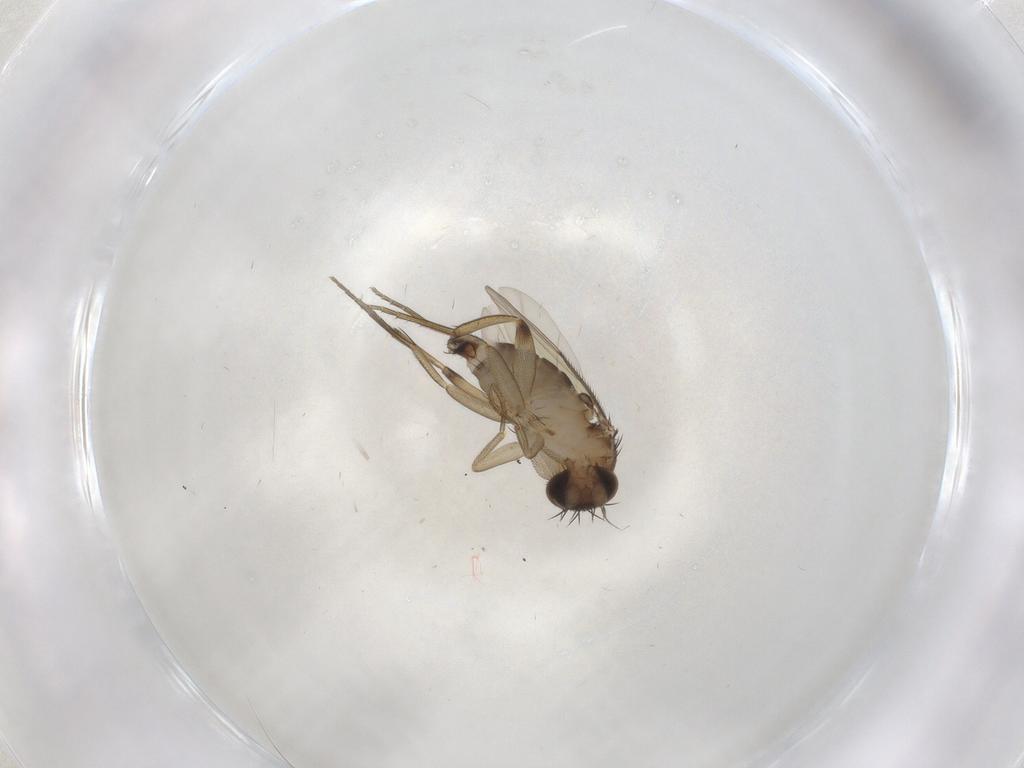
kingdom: Animalia
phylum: Arthropoda
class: Insecta
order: Diptera
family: Phoridae
